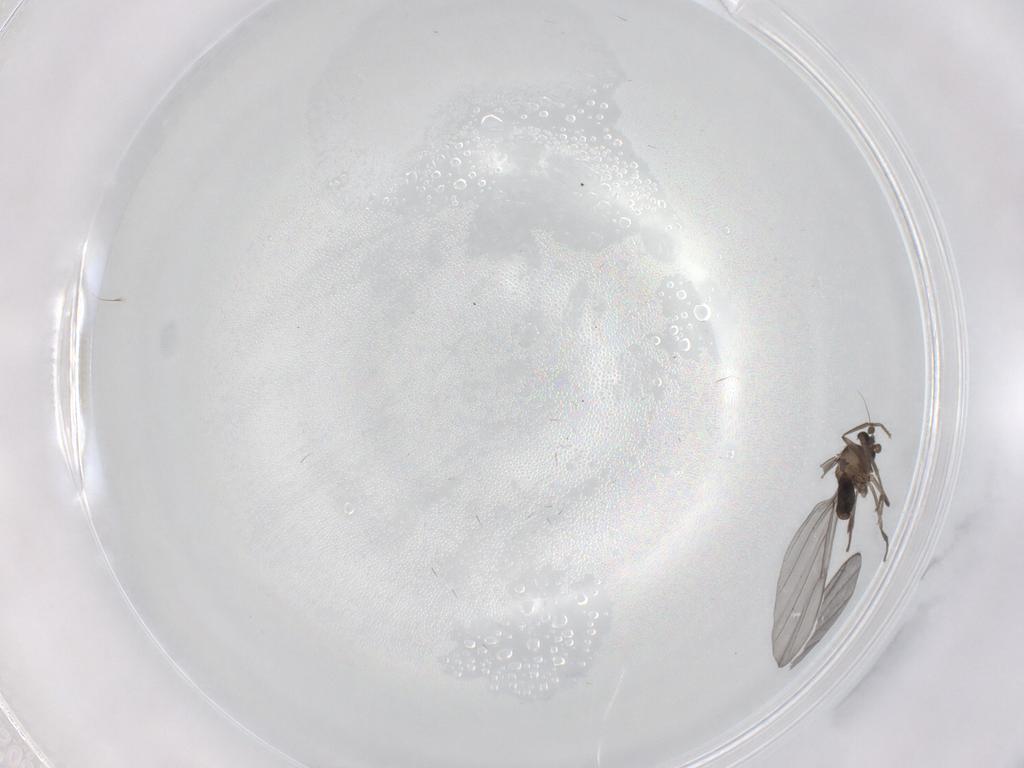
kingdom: Animalia
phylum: Arthropoda
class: Insecta
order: Diptera
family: Phoridae
